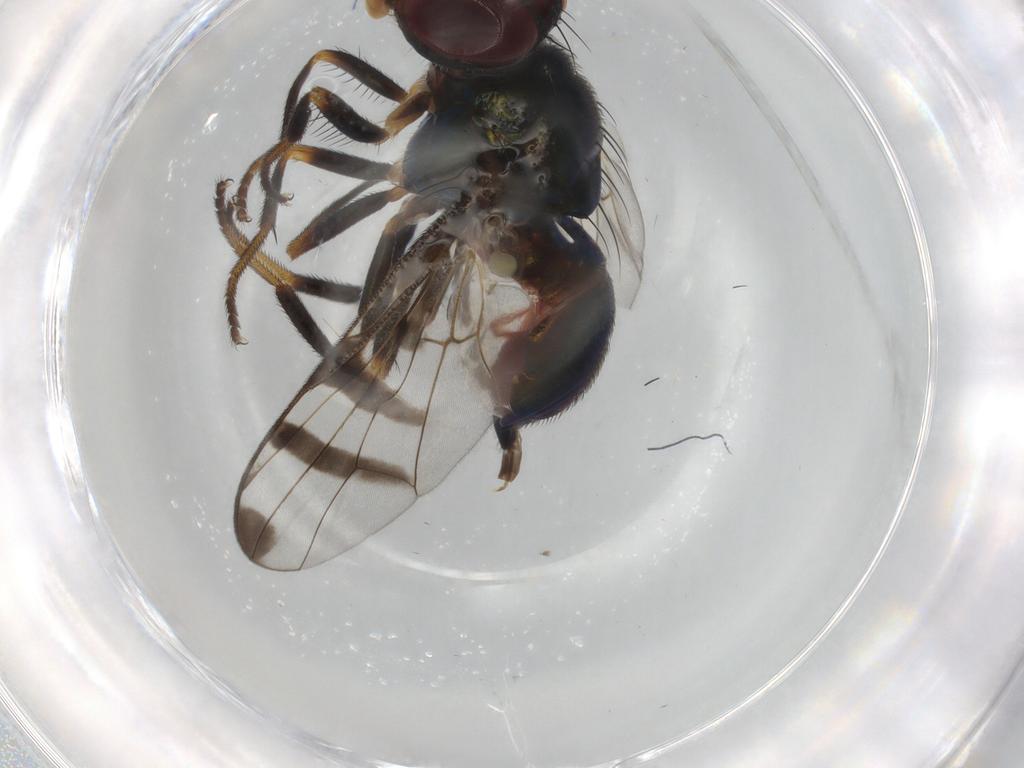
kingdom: Animalia
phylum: Arthropoda
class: Insecta
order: Diptera
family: Platystomatidae
